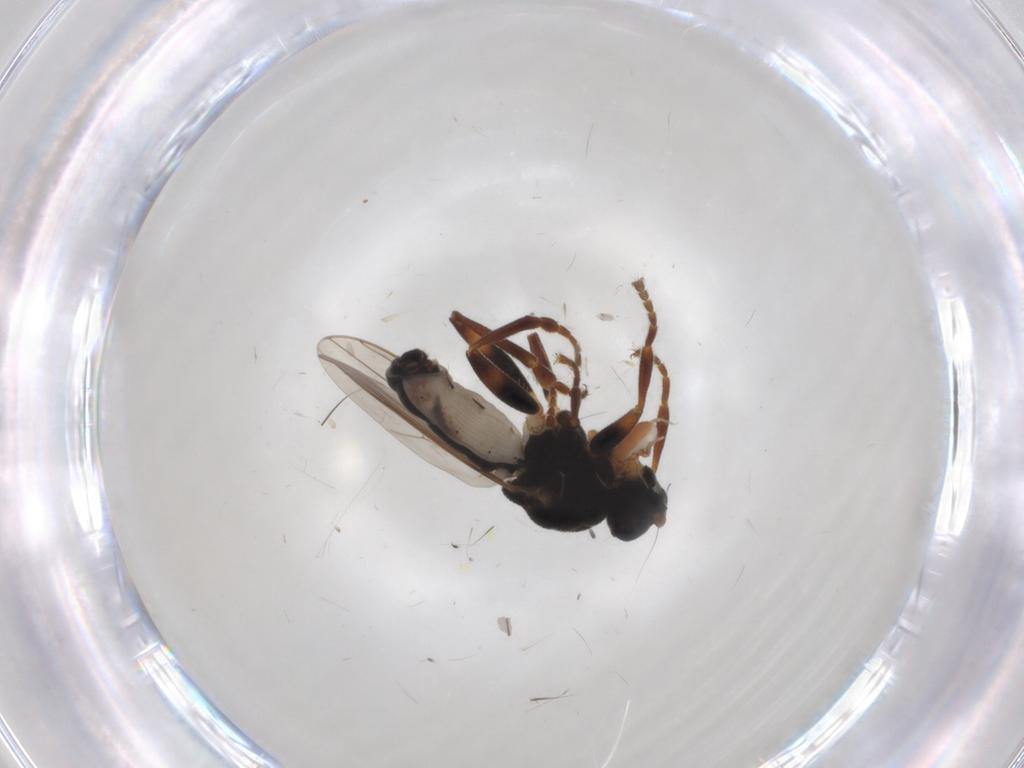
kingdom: Animalia
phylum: Arthropoda
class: Insecta
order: Diptera
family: Sphaeroceridae
